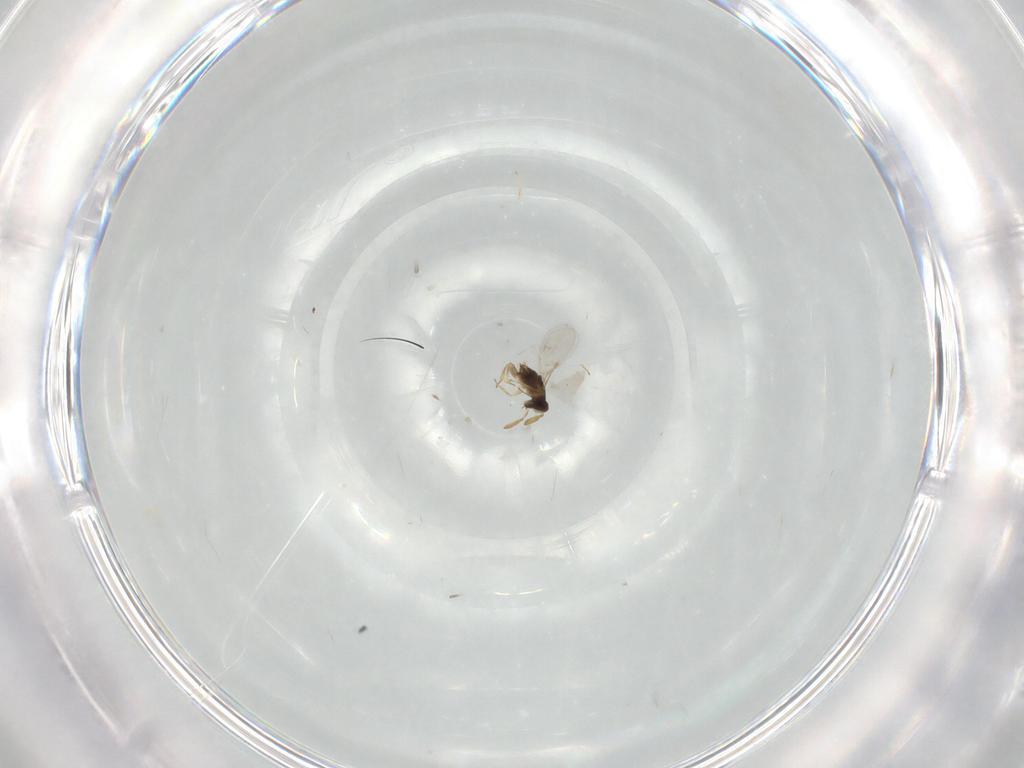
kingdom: Animalia
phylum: Arthropoda
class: Insecta
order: Hymenoptera
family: Encyrtidae
